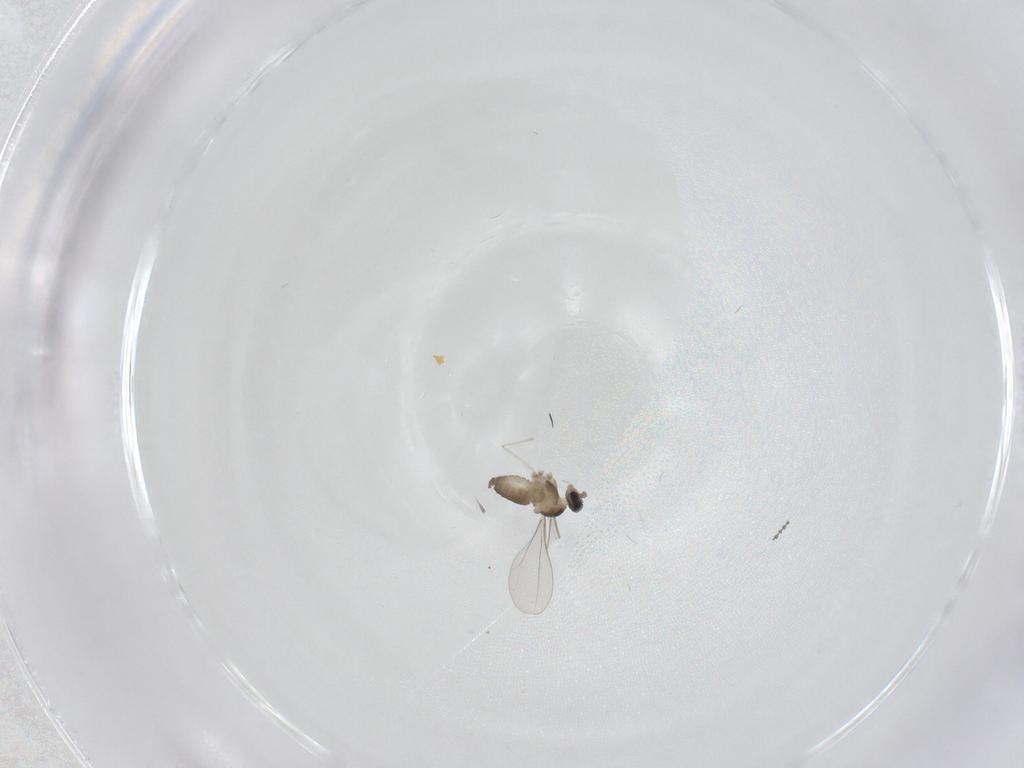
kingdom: Animalia
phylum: Arthropoda
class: Insecta
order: Diptera
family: Cecidomyiidae
